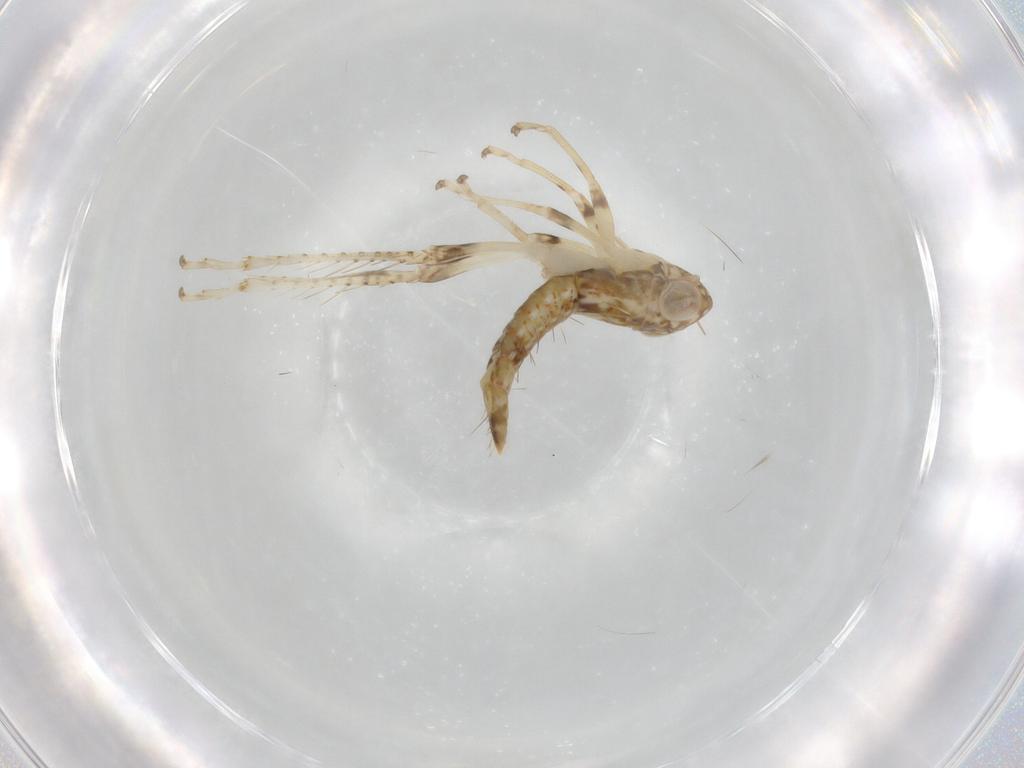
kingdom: Animalia
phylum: Arthropoda
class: Insecta
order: Hemiptera
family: Cicadellidae
